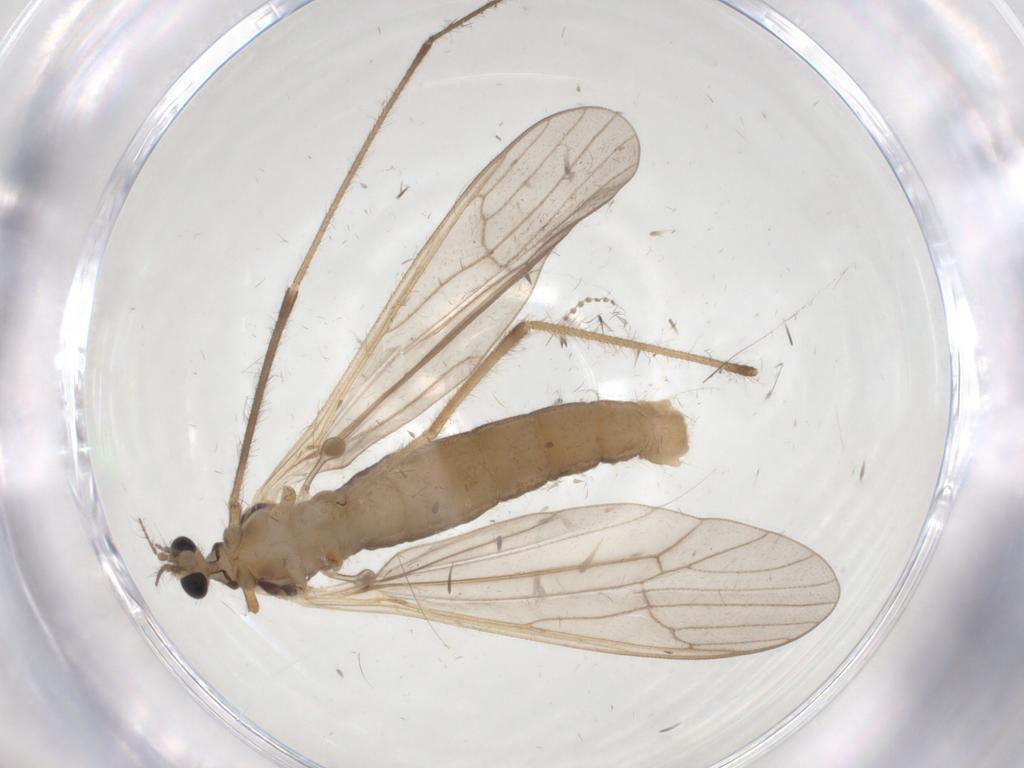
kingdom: Animalia
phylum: Arthropoda
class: Insecta
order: Diptera
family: Limoniidae
